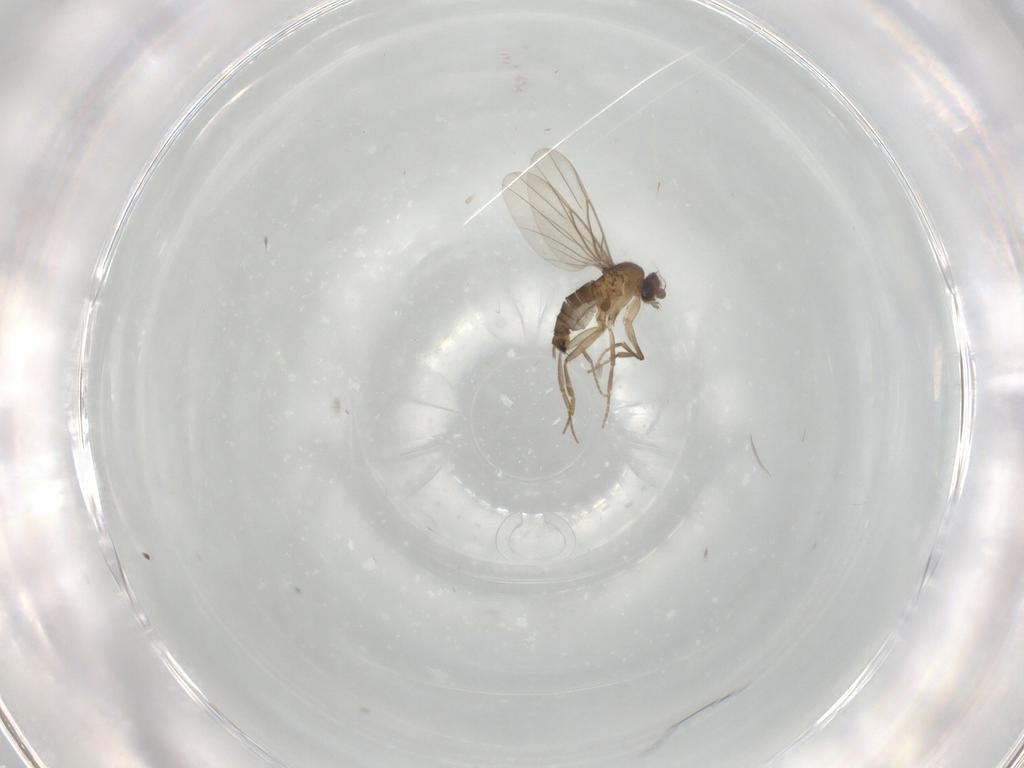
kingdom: Animalia
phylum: Arthropoda
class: Insecta
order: Diptera
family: Phoridae
